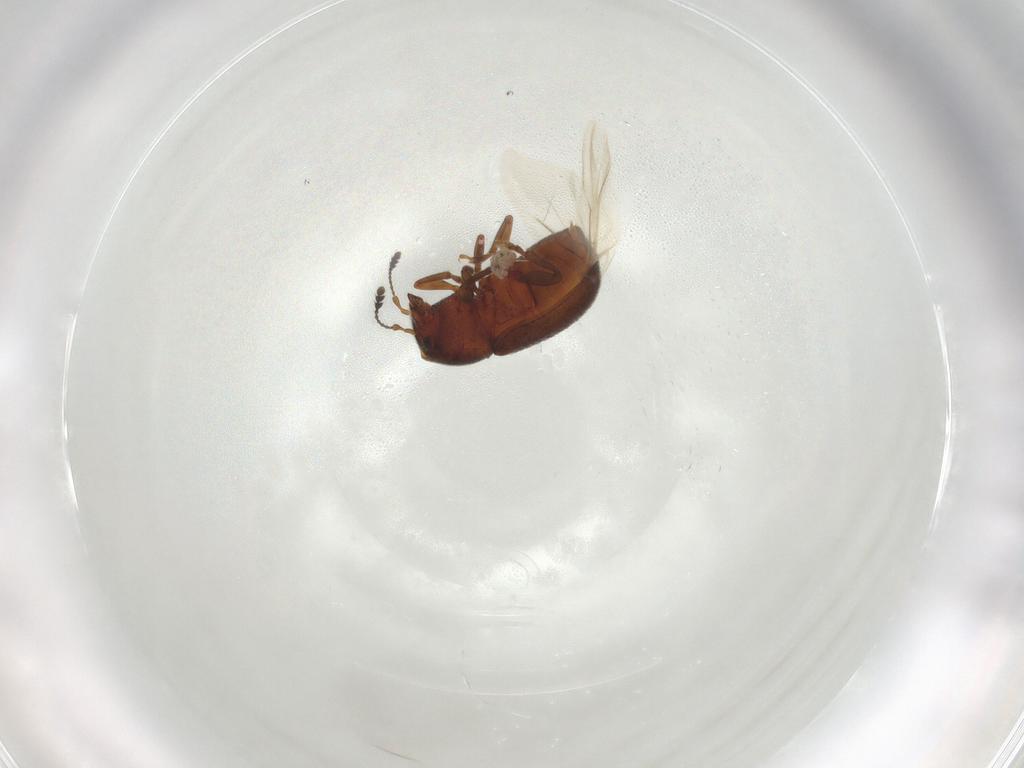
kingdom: Animalia
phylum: Arthropoda
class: Insecta
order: Coleoptera
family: Anthribidae
